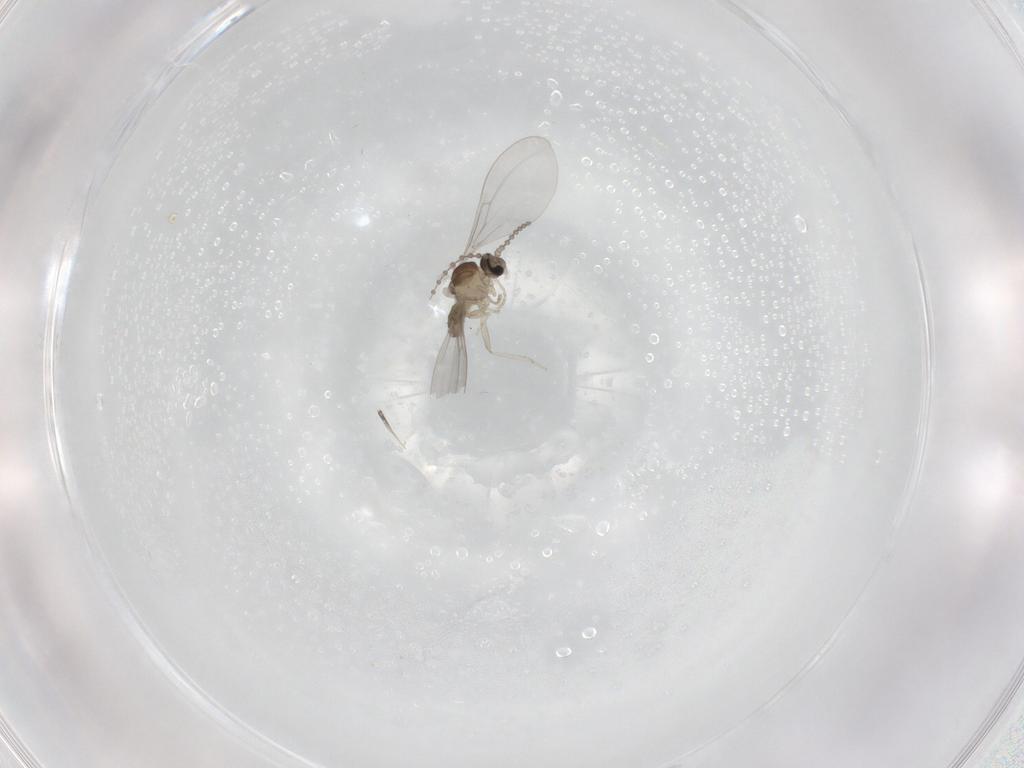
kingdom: Animalia
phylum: Arthropoda
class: Insecta
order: Diptera
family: Cecidomyiidae
